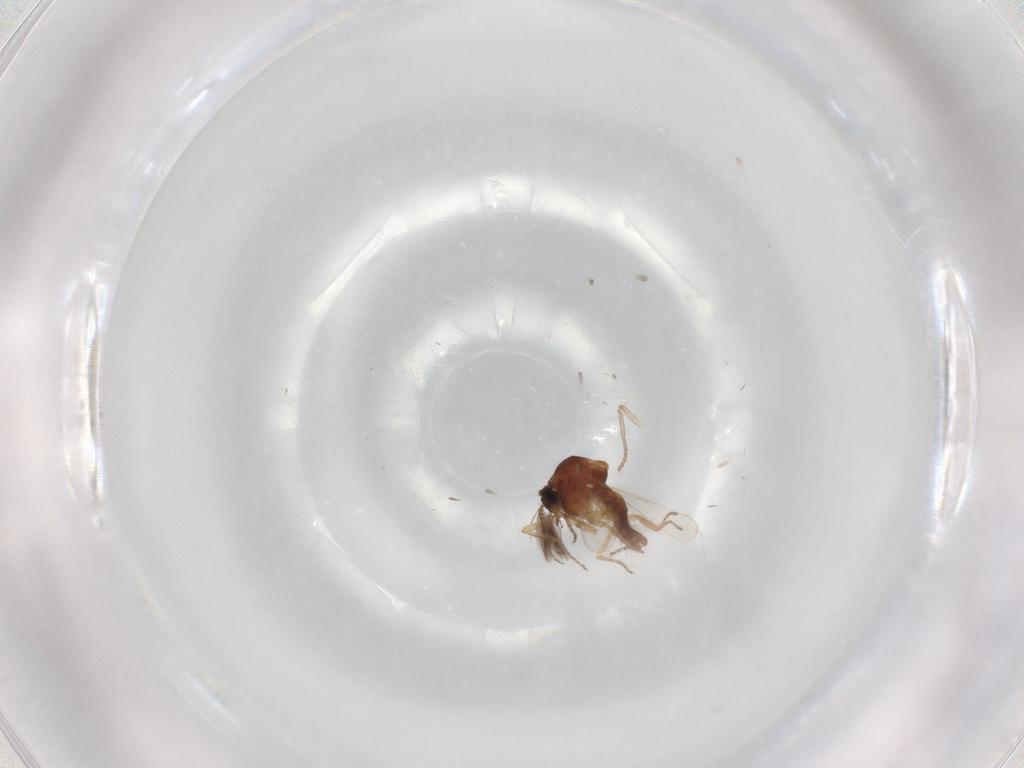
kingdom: Animalia
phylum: Arthropoda
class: Insecta
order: Diptera
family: Ceratopogonidae
